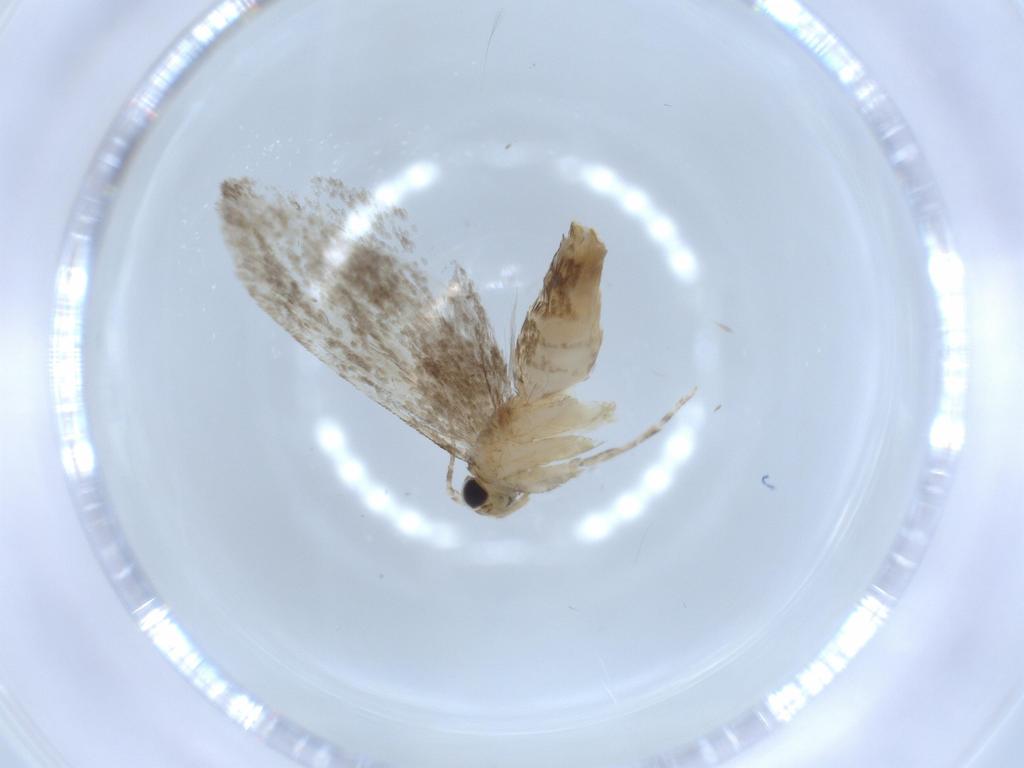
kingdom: Animalia
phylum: Arthropoda
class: Insecta
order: Lepidoptera
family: Tineidae
